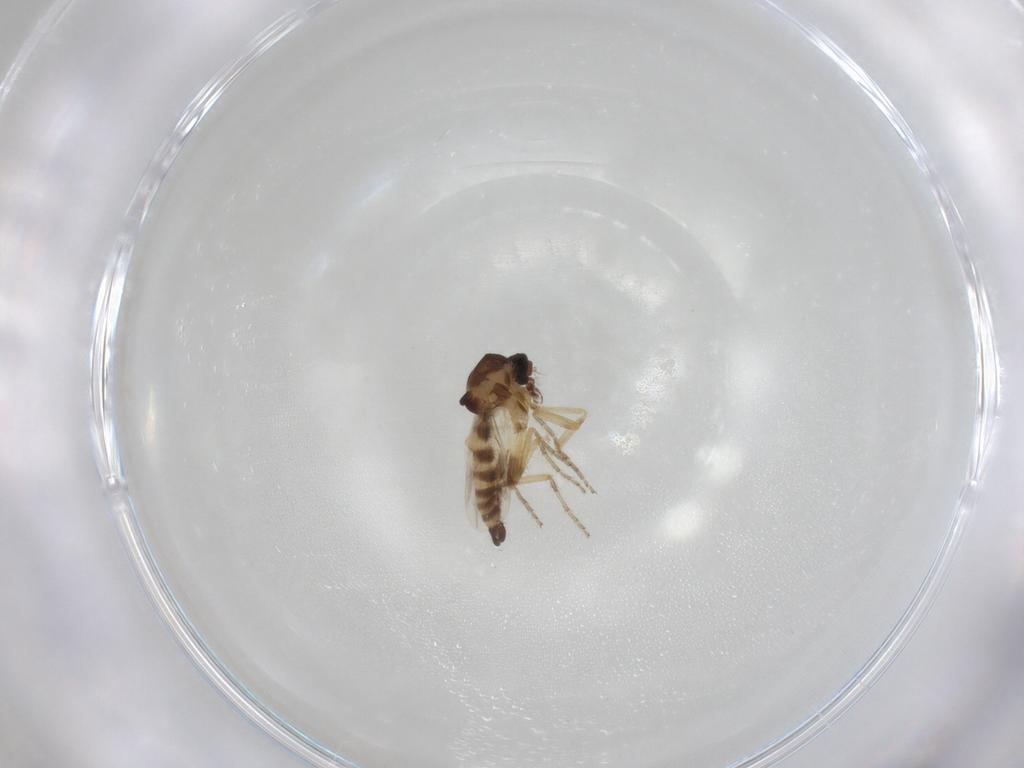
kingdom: Animalia
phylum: Arthropoda
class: Insecta
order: Diptera
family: Ceratopogonidae
